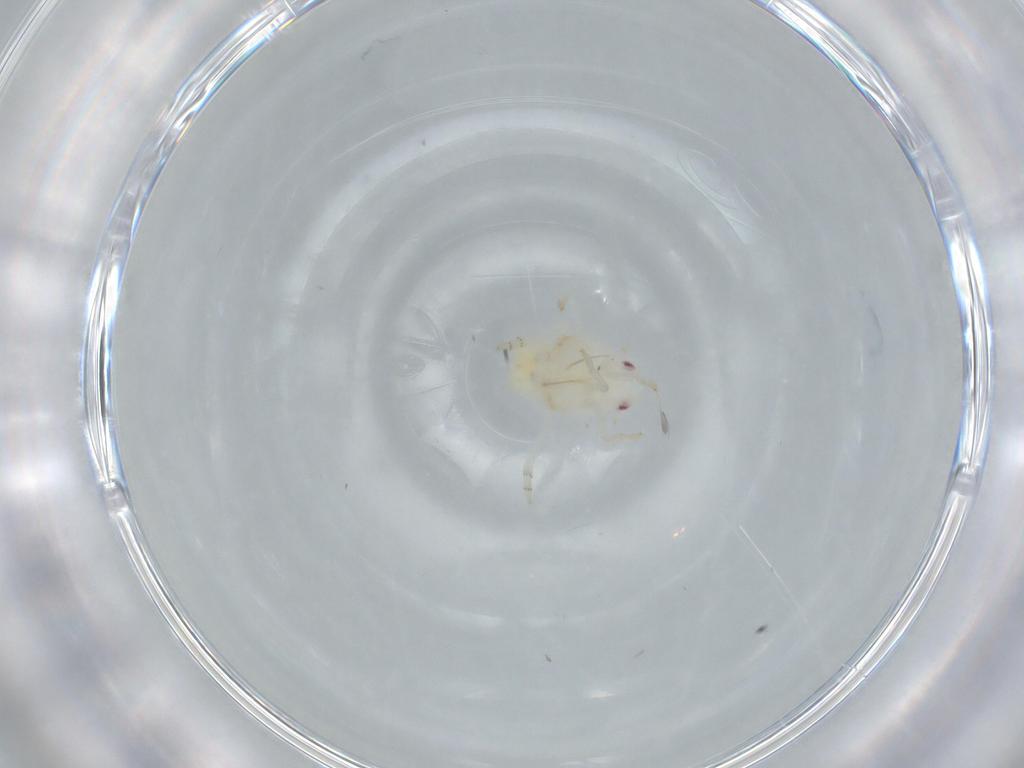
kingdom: Animalia
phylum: Arthropoda
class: Insecta
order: Hemiptera
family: Flatidae
